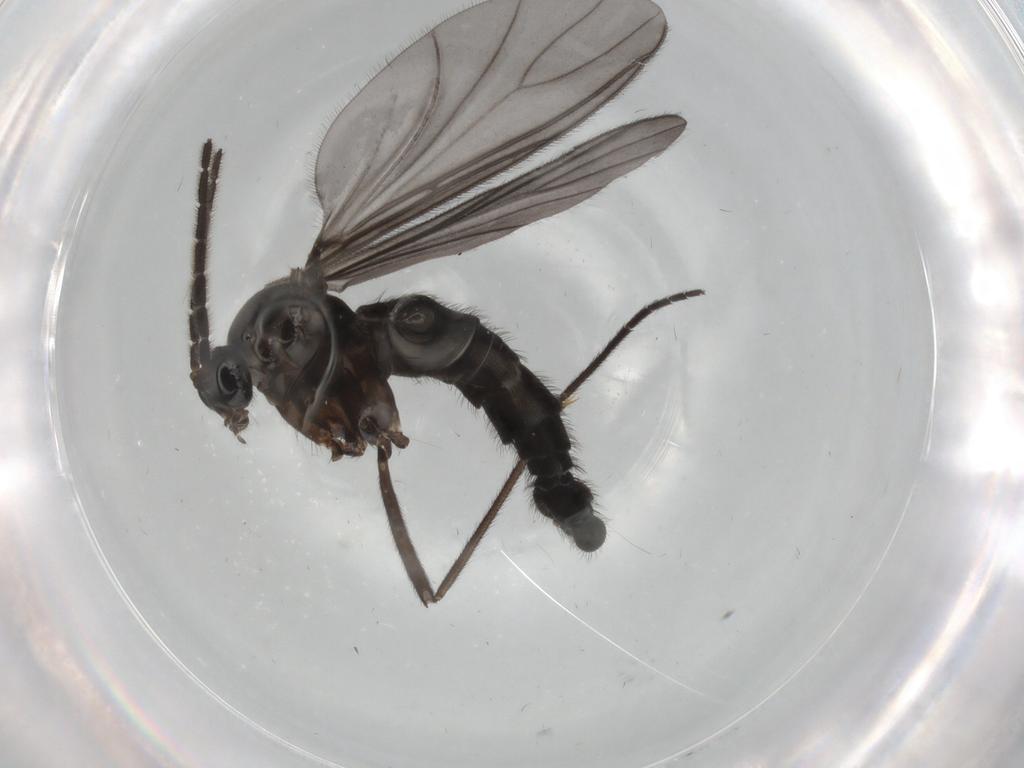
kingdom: Animalia
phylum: Arthropoda
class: Insecta
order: Diptera
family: Sciaridae
